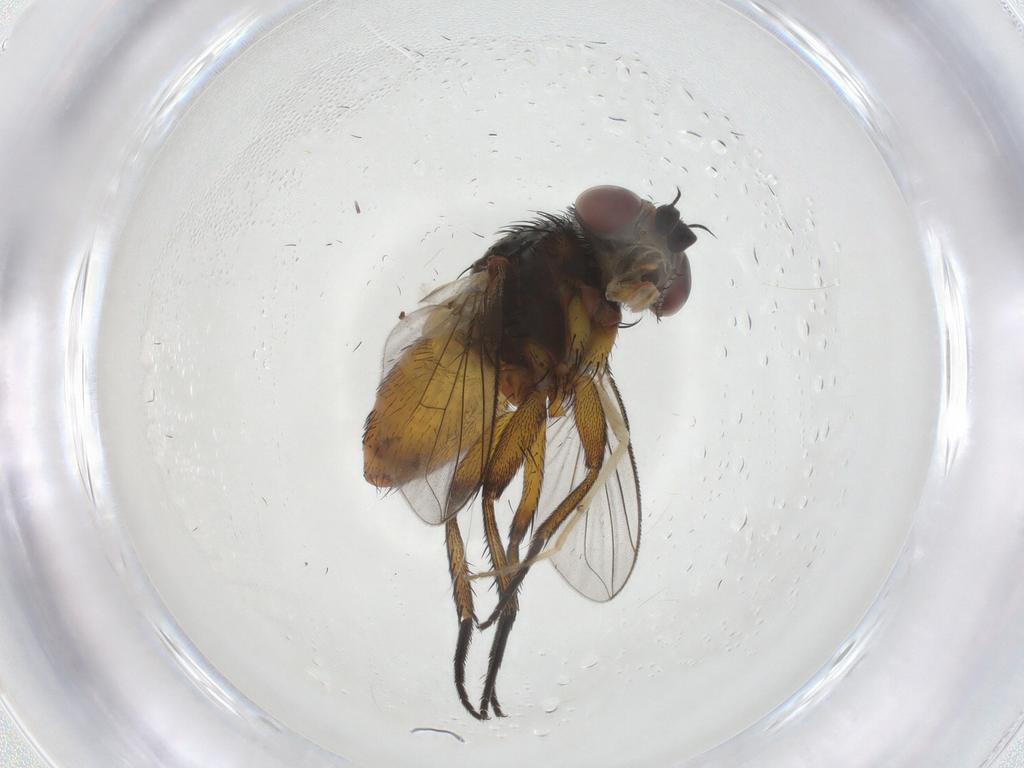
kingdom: Animalia
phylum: Arthropoda
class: Insecta
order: Diptera
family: Tachinidae
